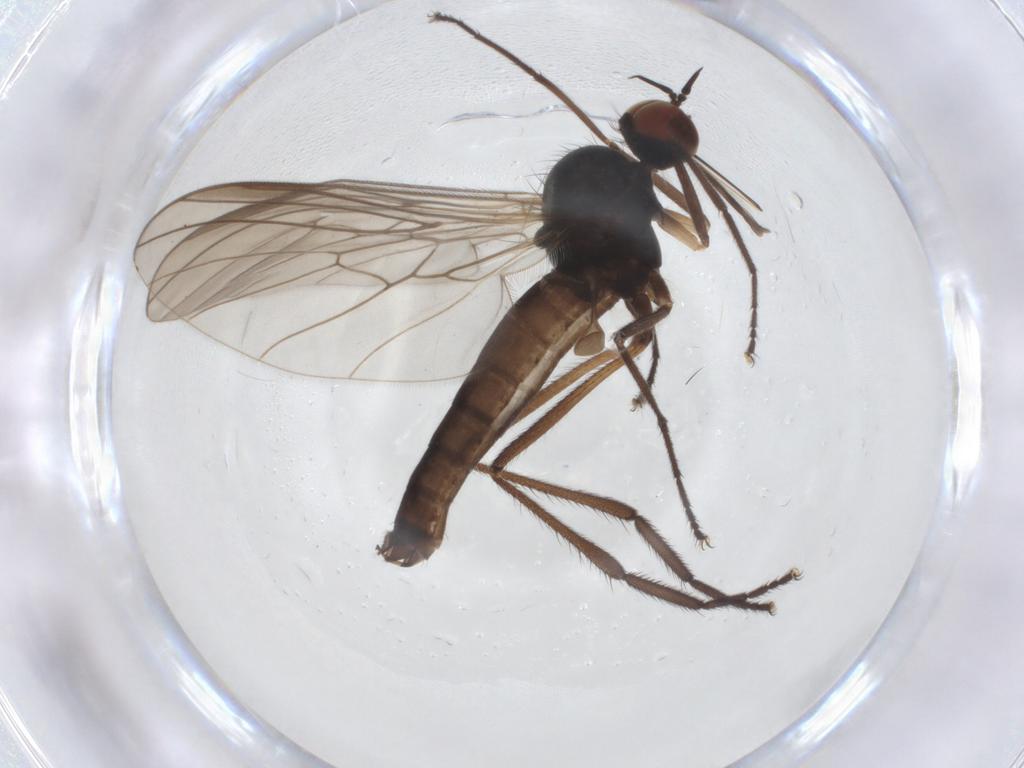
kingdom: Animalia
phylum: Arthropoda
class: Insecta
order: Diptera
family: Empididae
